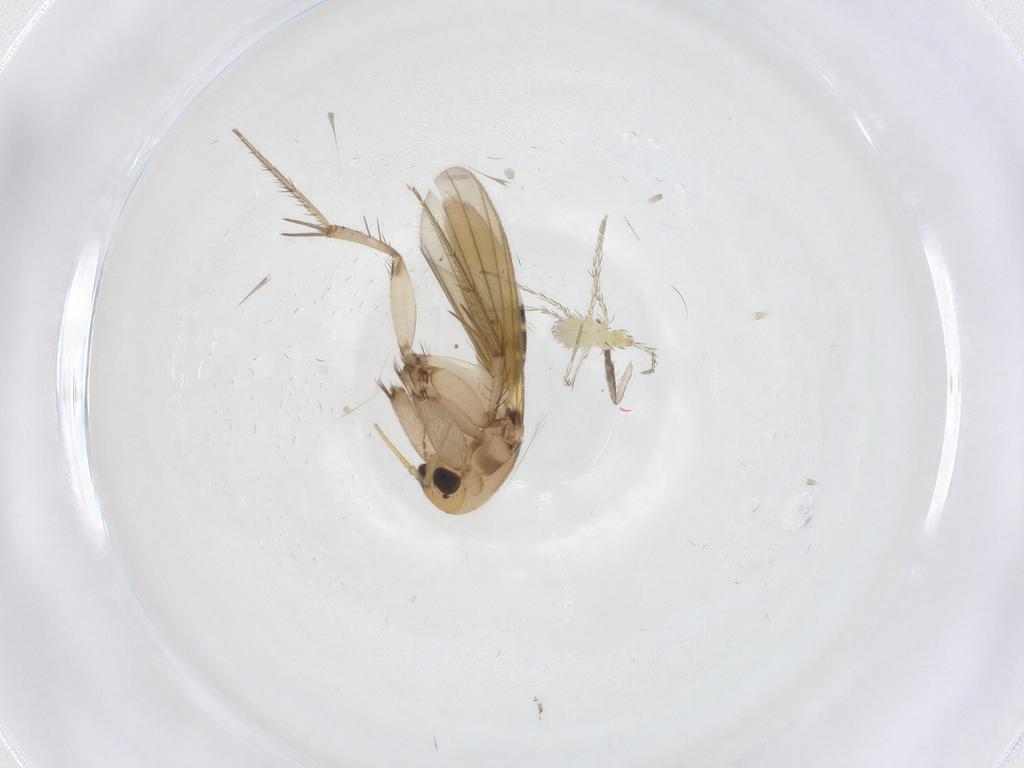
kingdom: Animalia
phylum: Arthropoda
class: Insecta
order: Diptera
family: Mycetophilidae
